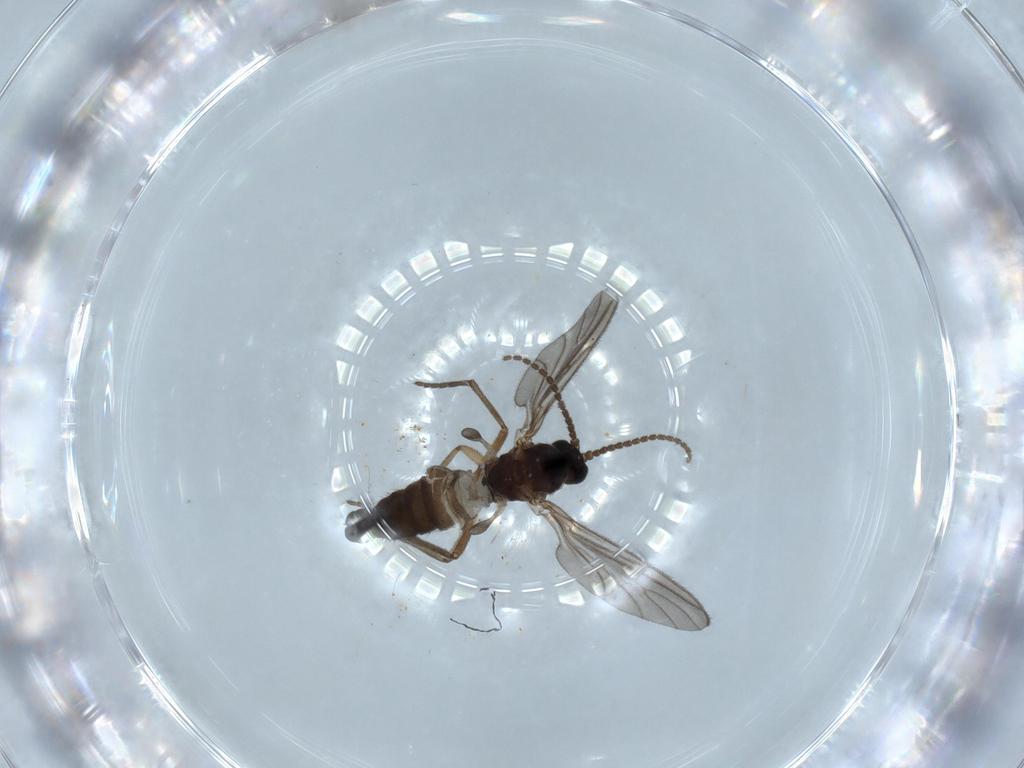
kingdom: Animalia
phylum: Arthropoda
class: Insecta
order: Diptera
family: Sciaridae
